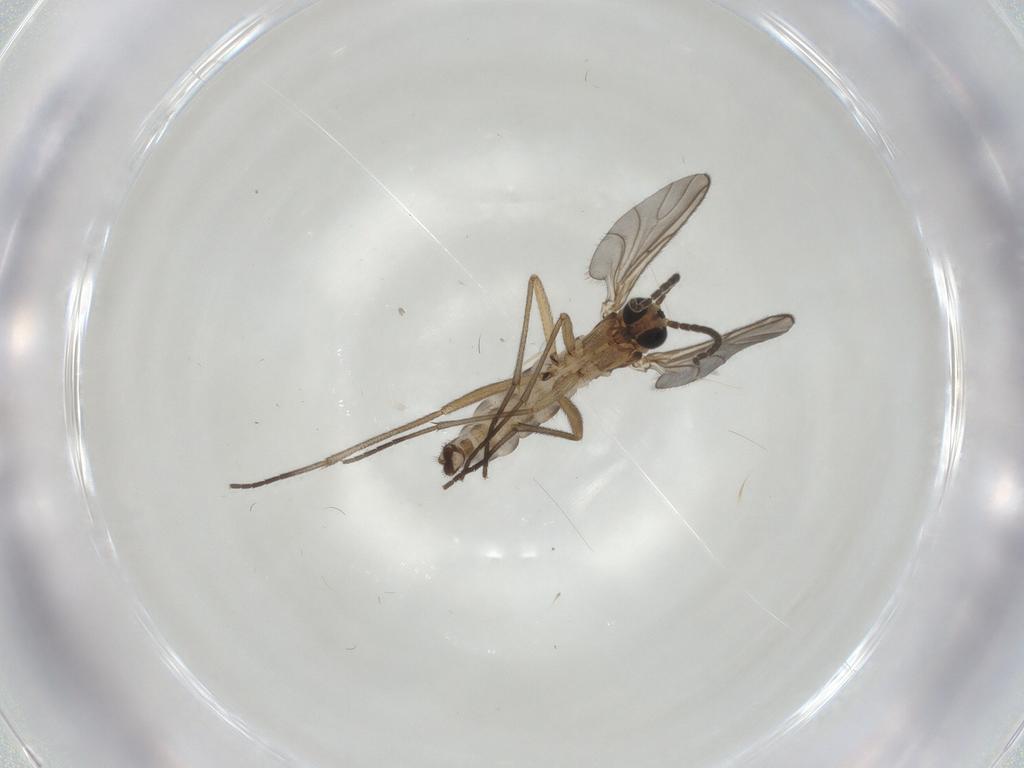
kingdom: Animalia
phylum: Arthropoda
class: Insecta
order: Diptera
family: Sciaridae
